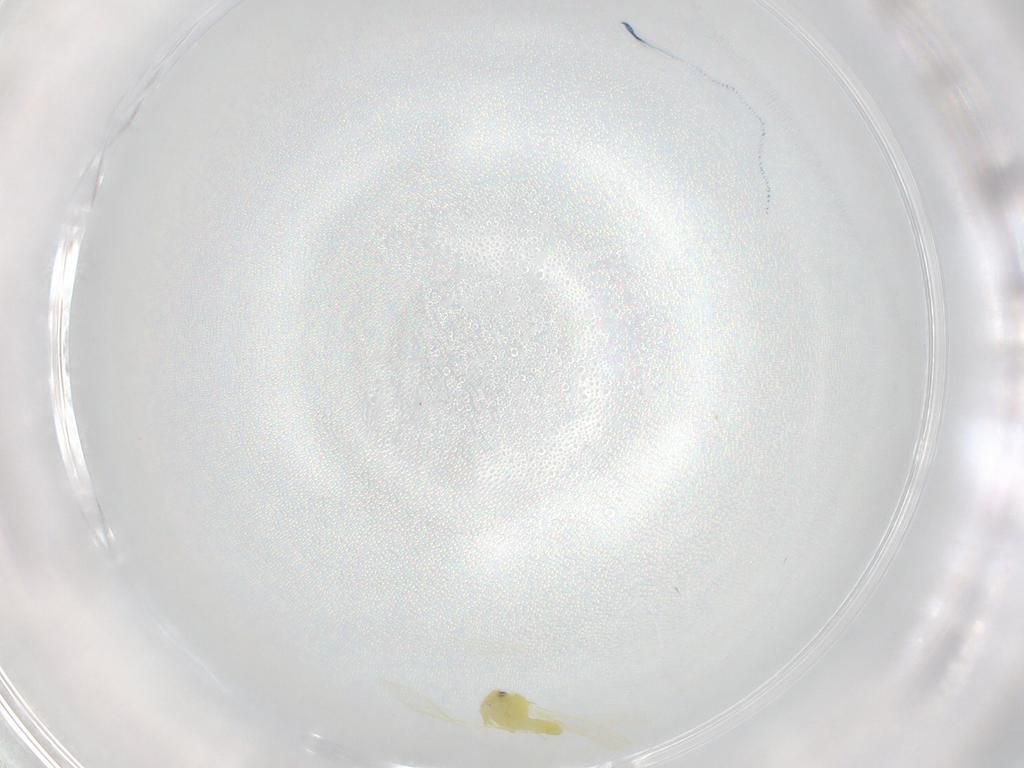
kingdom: Animalia
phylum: Arthropoda
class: Insecta
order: Hemiptera
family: Aleyrodidae
